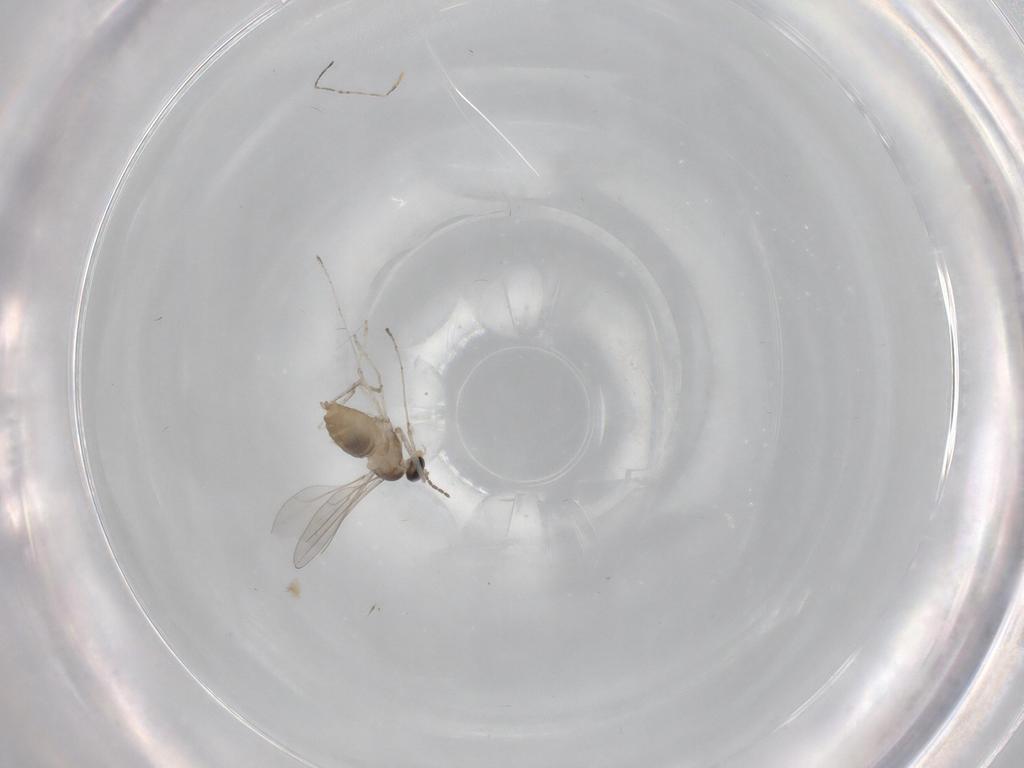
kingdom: Animalia
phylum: Arthropoda
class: Insecta
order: Diptera
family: Cecidomyiidae
